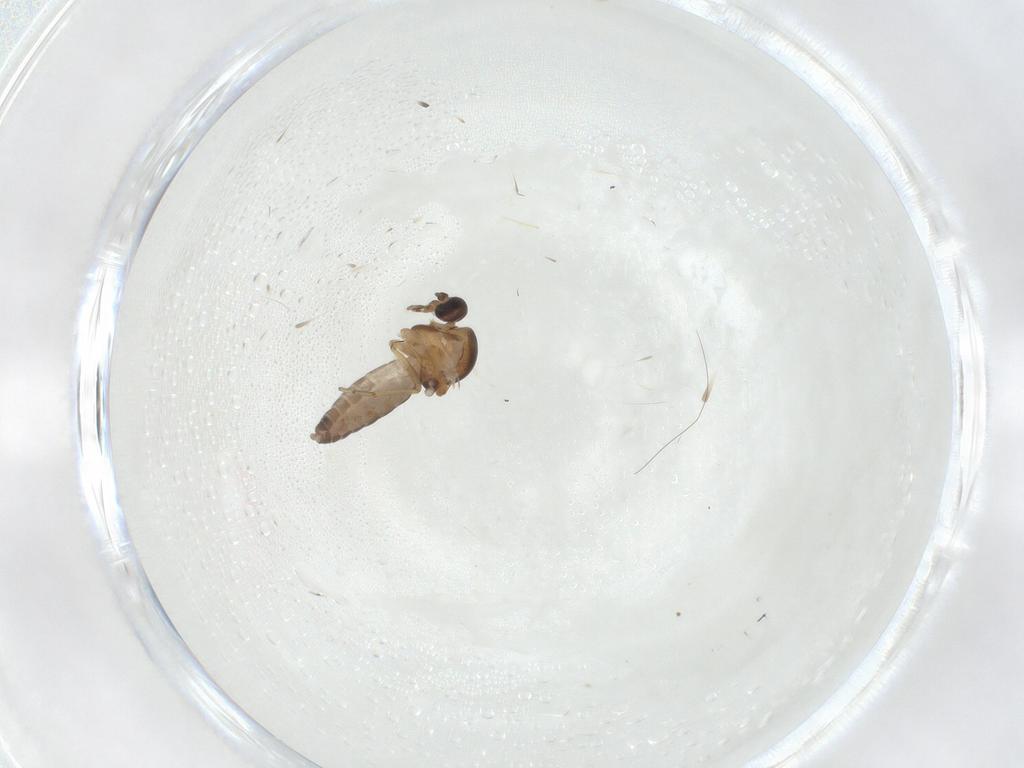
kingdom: Animalia
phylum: Arthropoda
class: Insecta
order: Diptera
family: Ceratopogonidae
